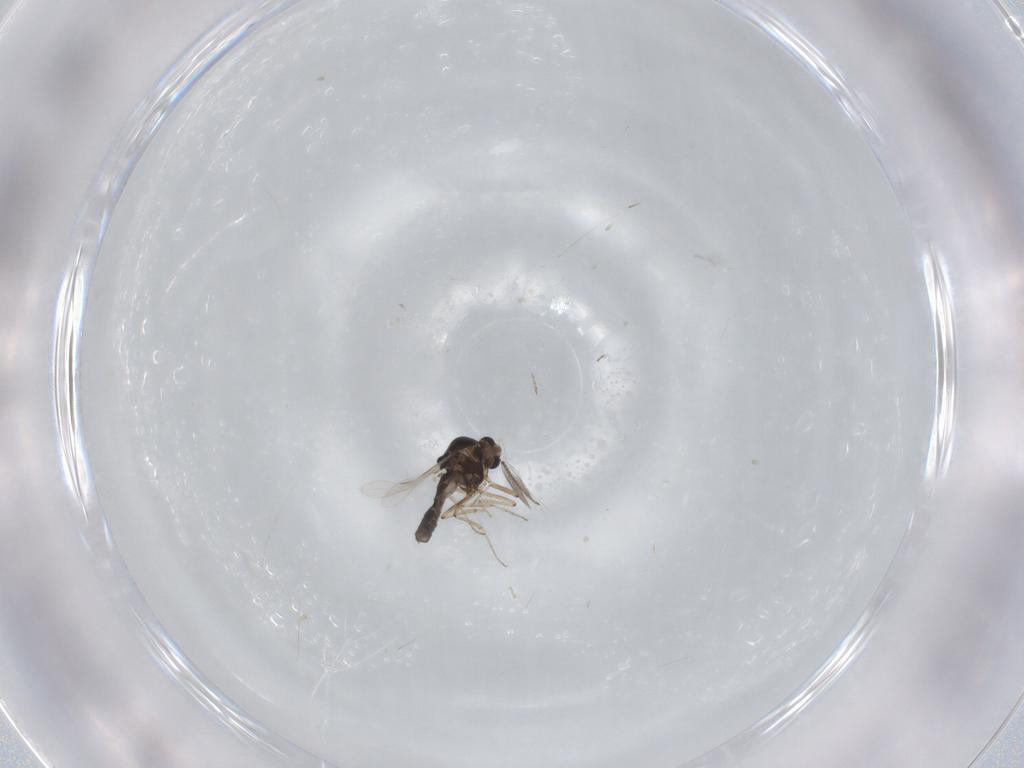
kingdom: Animalia
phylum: Arthropoda
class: Insecta
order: Diptera
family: Ceratopogonidae
